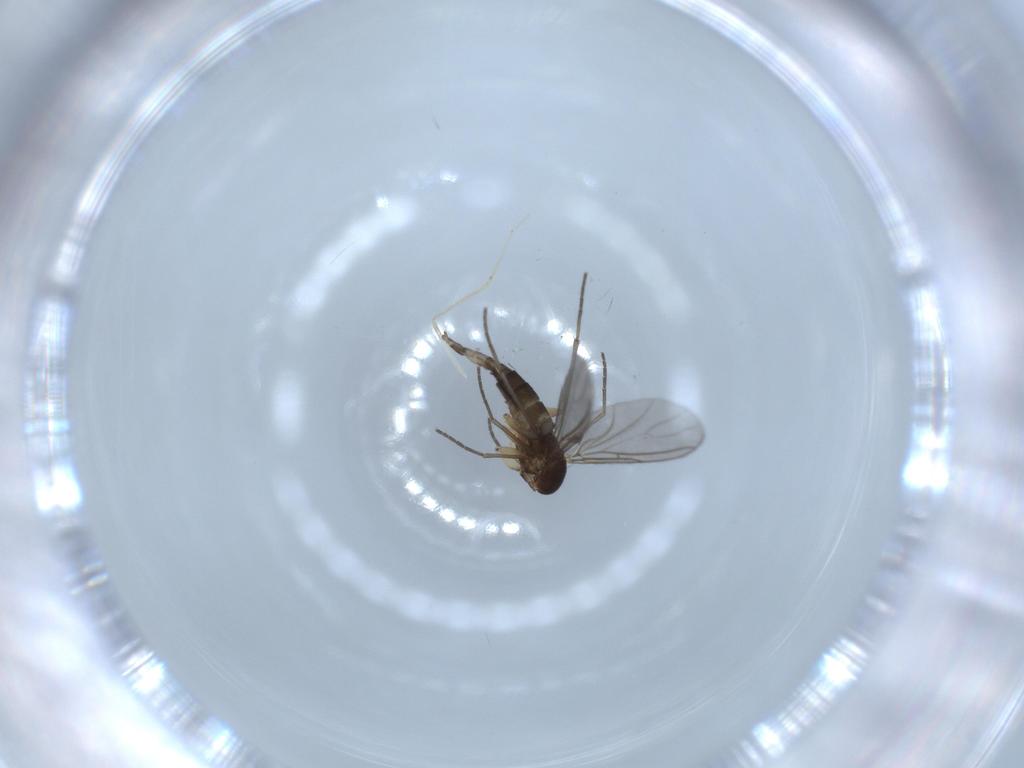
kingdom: Animalia
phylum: Arthropoda
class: Insecta
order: Diptera
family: Sciaridae
